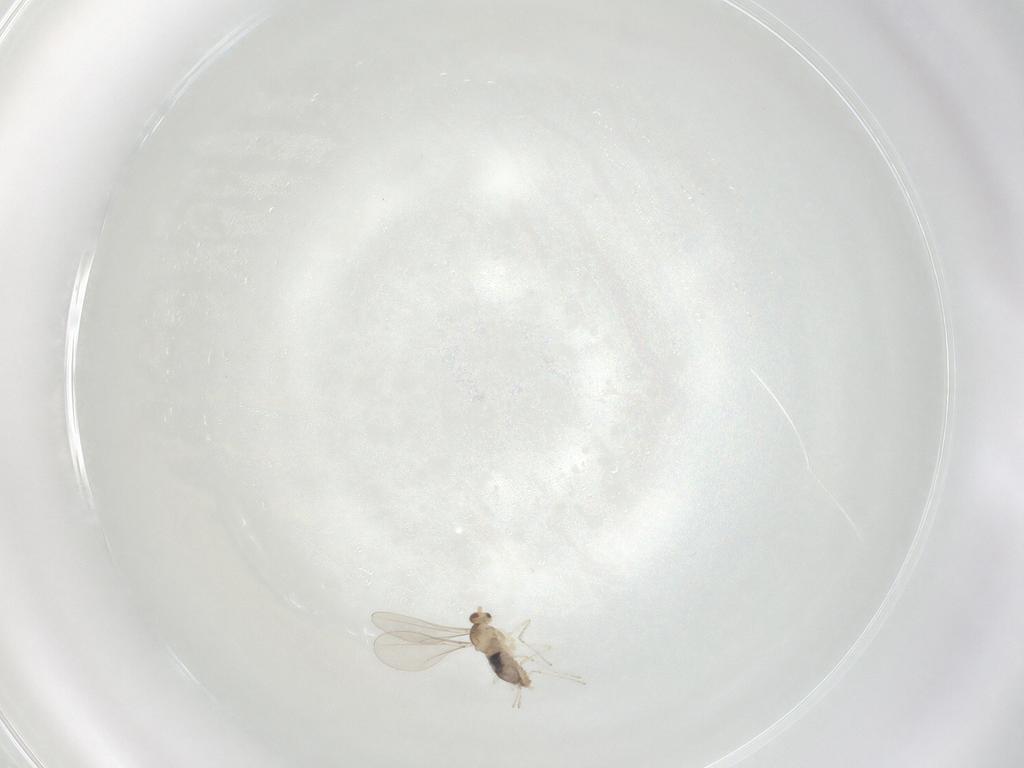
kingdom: Animalia
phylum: Arthropoda
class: Insecta
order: Diptera
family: Cecidomyiidae
